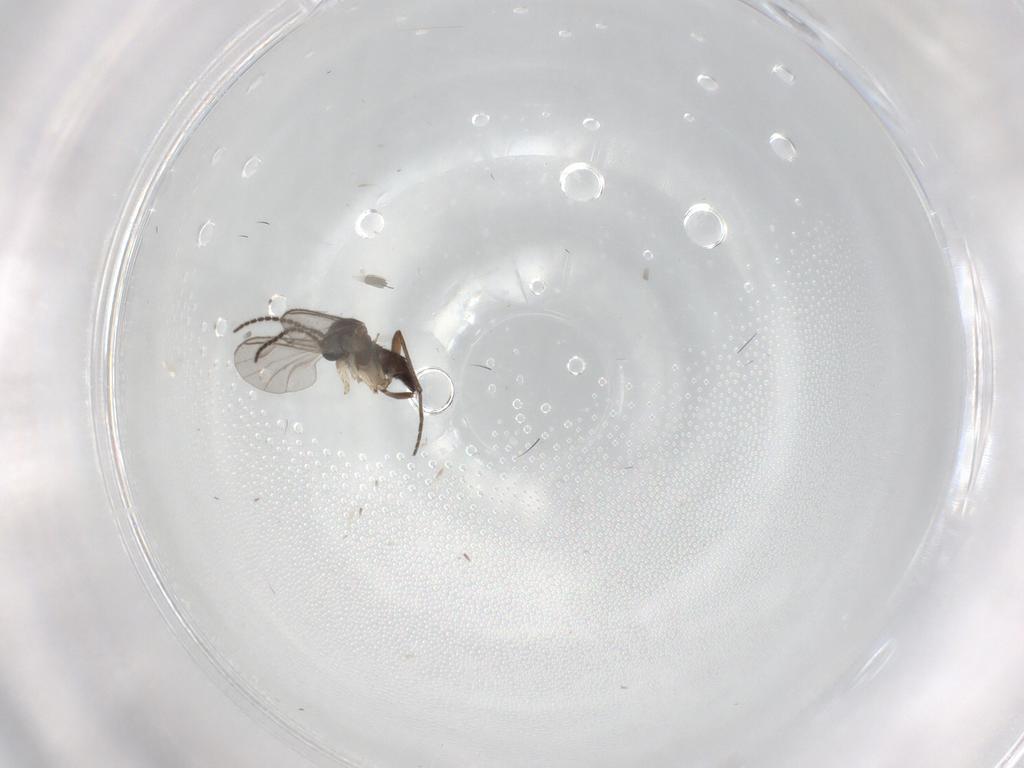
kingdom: Animalia
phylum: Arthropoda
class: Insecta
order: Diptera
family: Sciaridae
